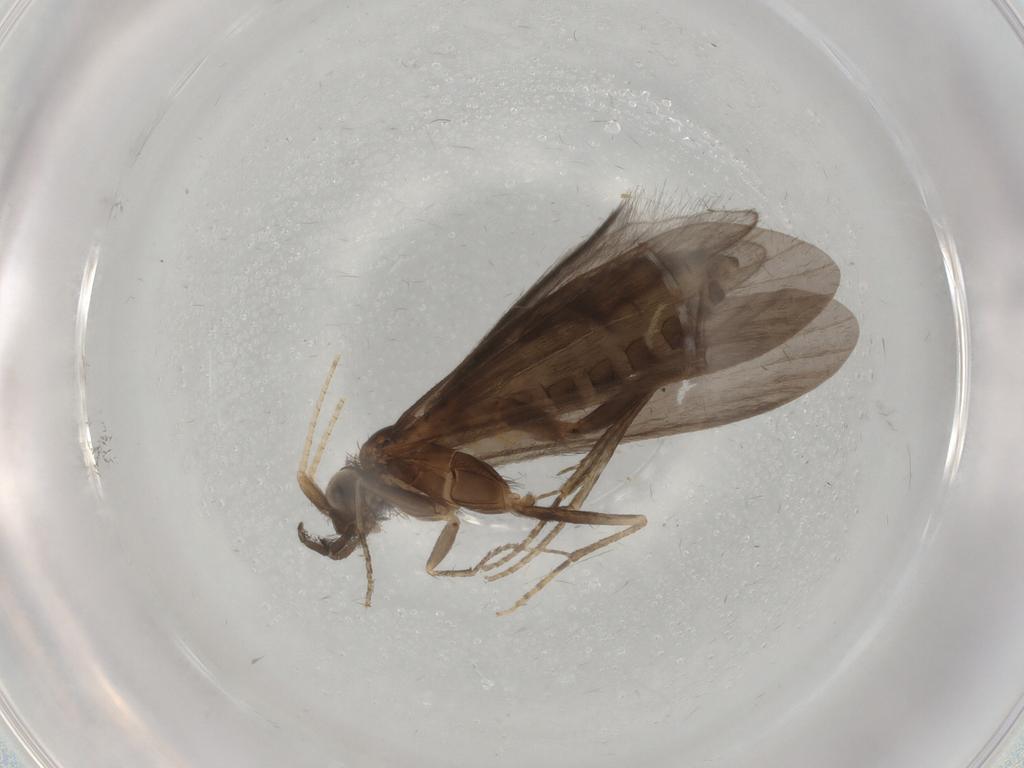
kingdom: Animalia
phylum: Arthropoda
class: Insecta
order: Trichoptera
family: Helicopsychidae
